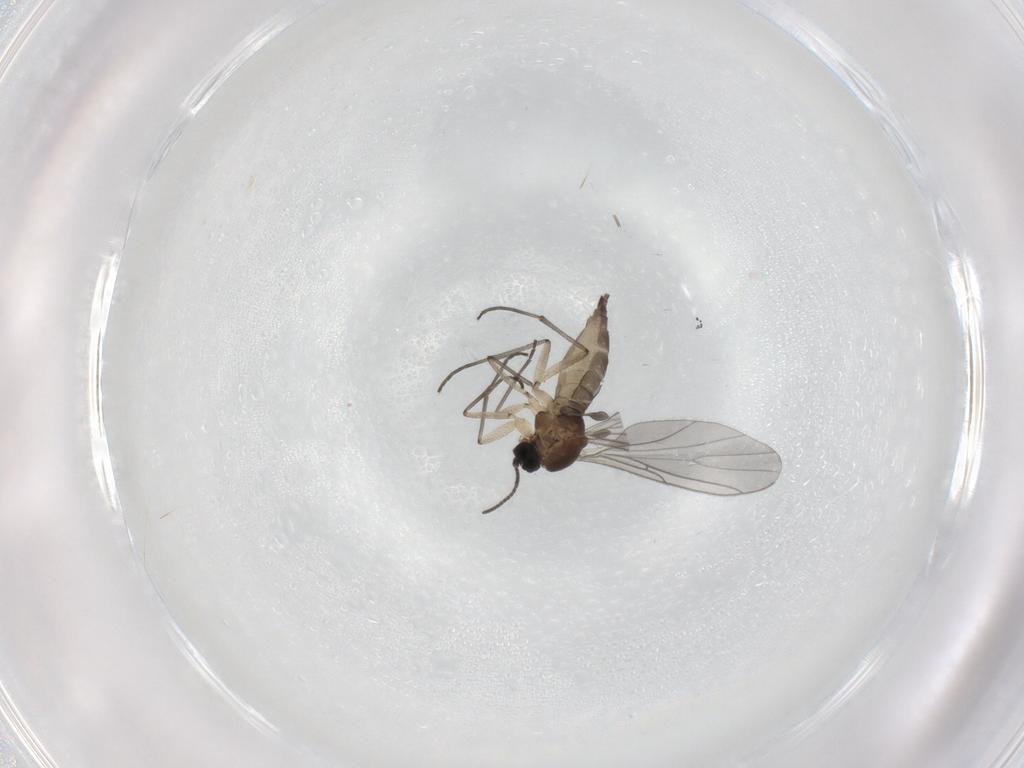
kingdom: Animalia
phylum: Arthropoda
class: Insecta
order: Diptera
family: Sciaridae
